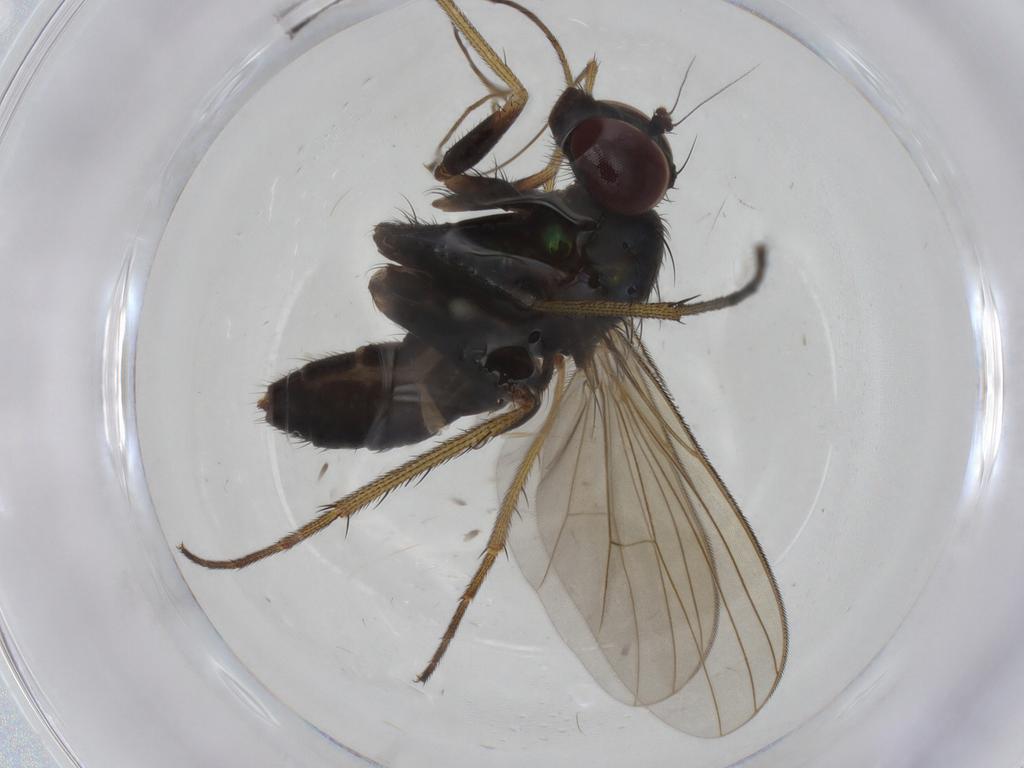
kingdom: Animalia
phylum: Arthropoda
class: Insecta
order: Diptera
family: Dolichopodidae
